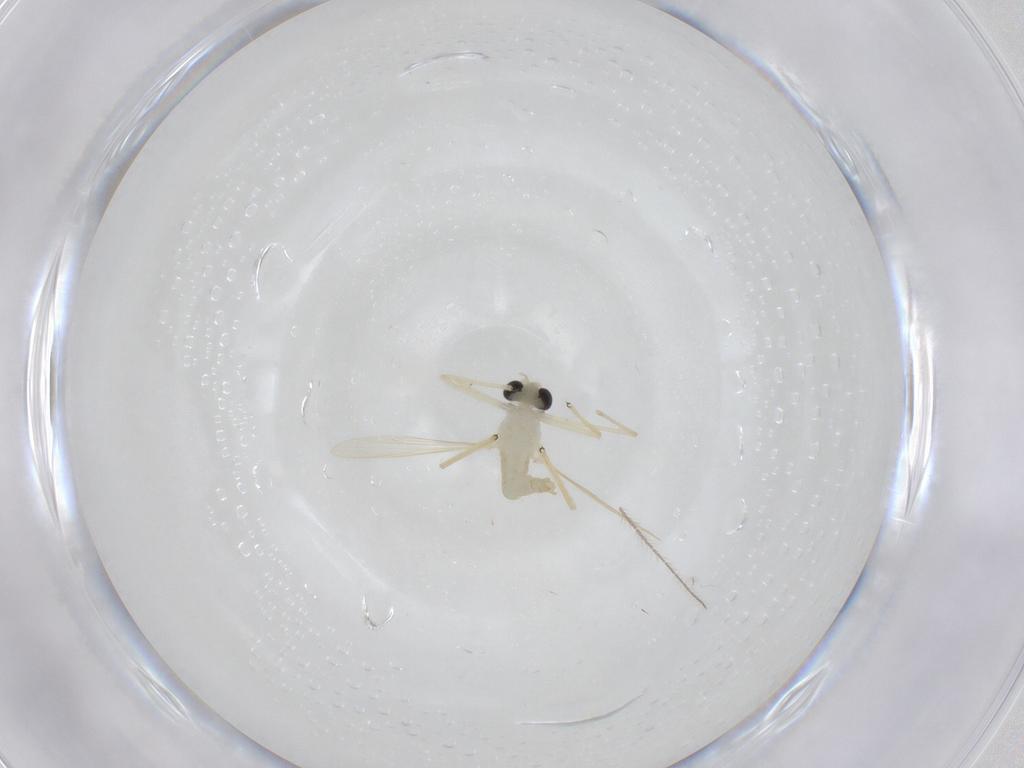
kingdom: Animalia
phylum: Arthropoda
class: Insecta
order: Diptera
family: Chironomidae
